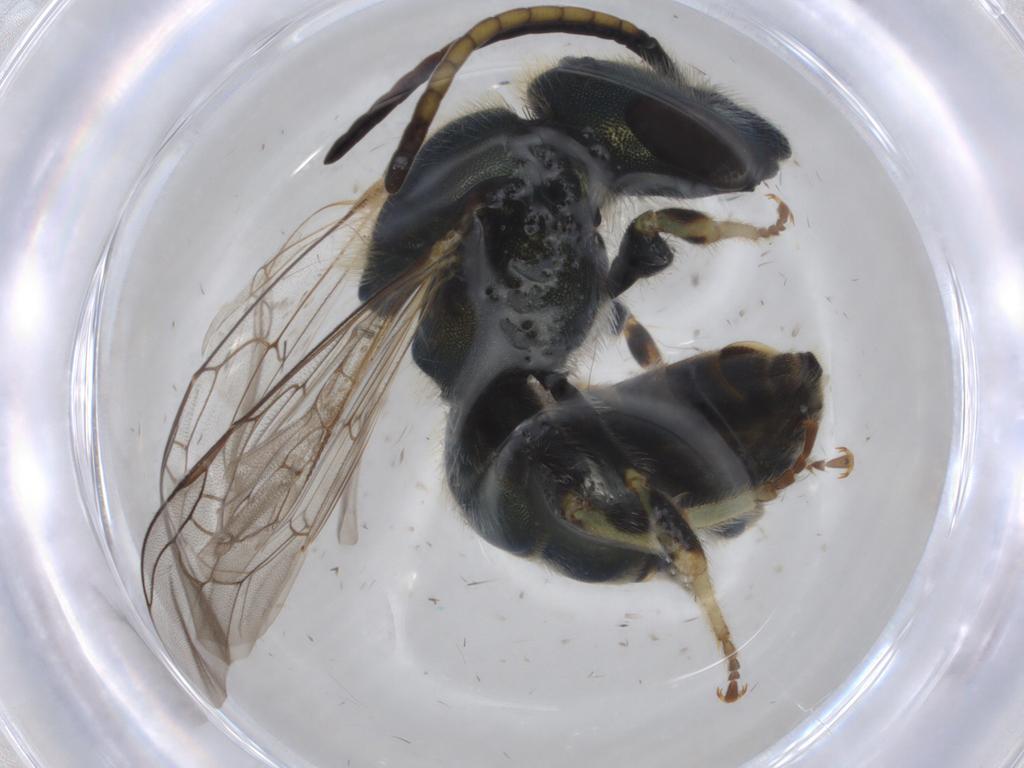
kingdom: Animalia
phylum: Arthropoda
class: Insecta
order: Hymenoptera
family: Halictidae
